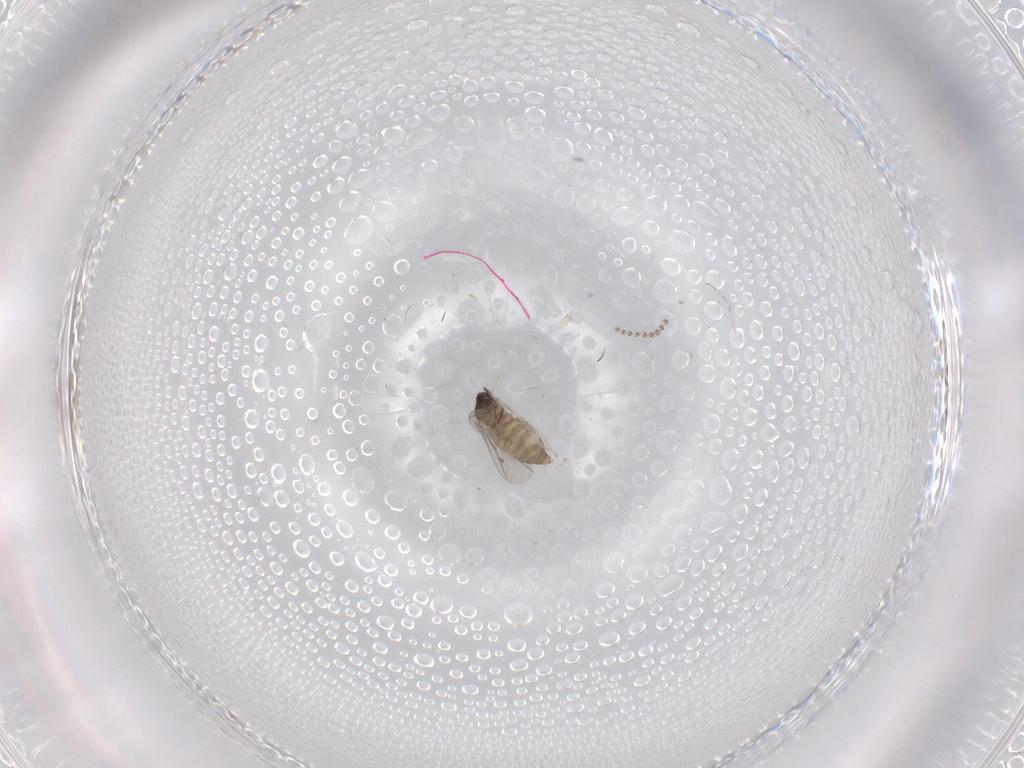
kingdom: Animalia
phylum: Arthropoda
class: Insecta
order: Diptera
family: Cecidomyiidae
